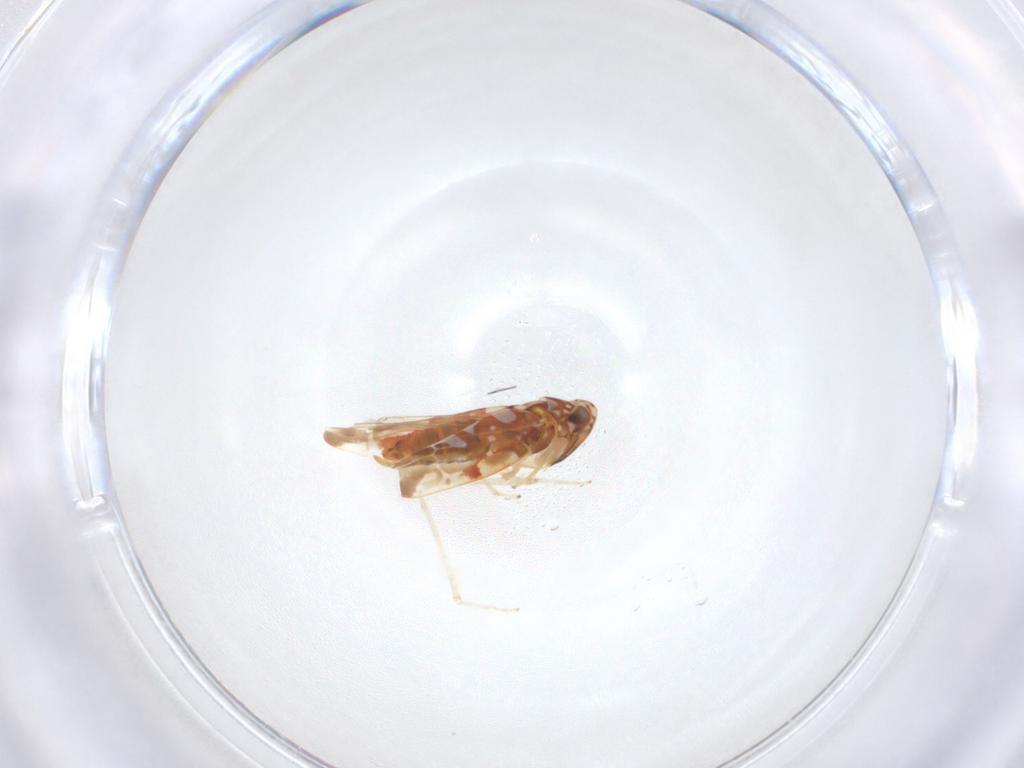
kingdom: Animalia
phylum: Arthropoda
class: Insecta
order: Hemiptera
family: Cicadellidae
